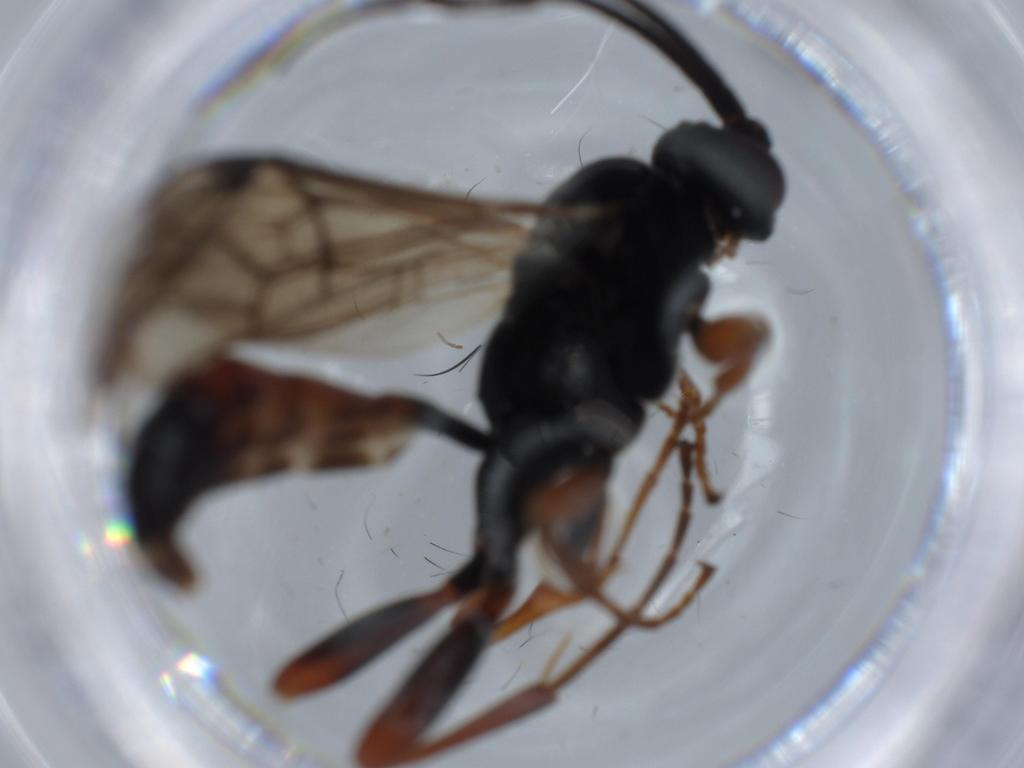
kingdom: Animalia
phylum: Arthropoda
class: Insecta
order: Hymenoptera
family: Ichneumonidae
